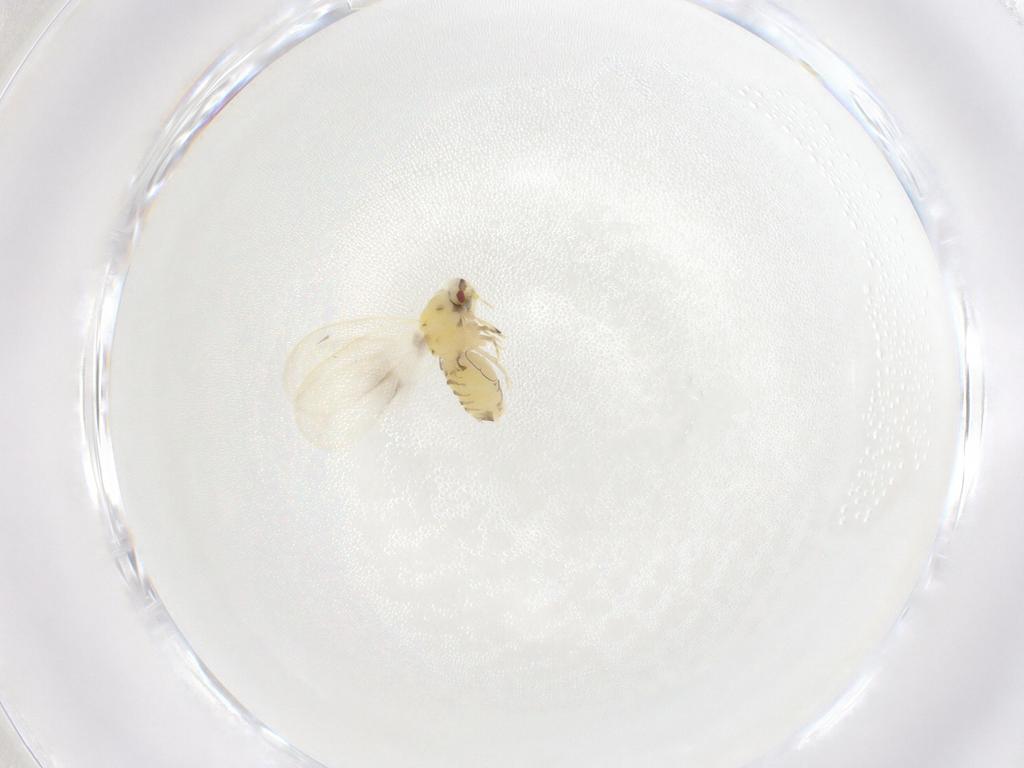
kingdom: Animalia
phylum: Arthropoda
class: Insecta
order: Hemiptera
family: Aleyrodidae
